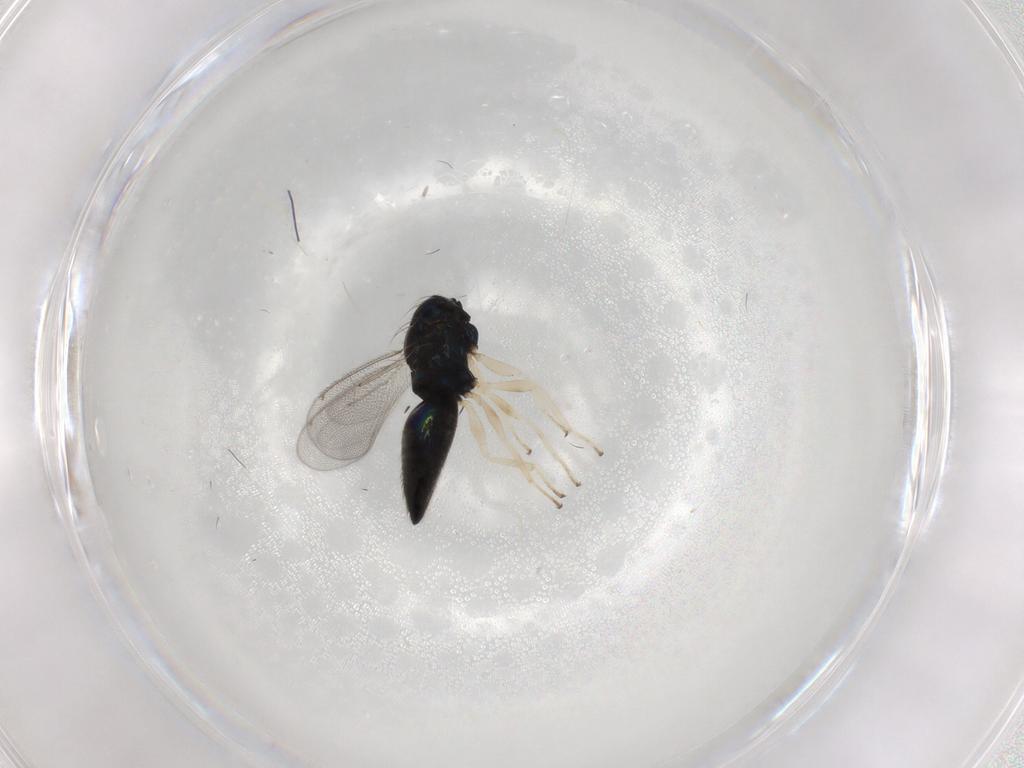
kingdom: Animalia
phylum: Arthropoda
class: Insecta
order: Hymenoptera
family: Eulophidae
